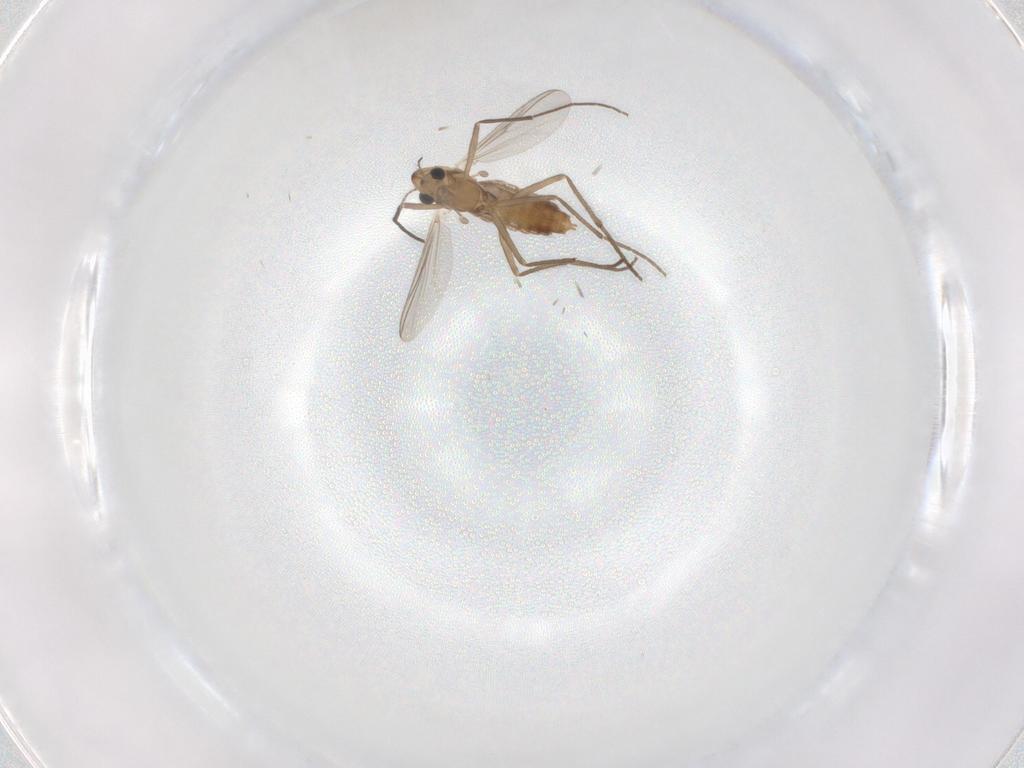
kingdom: Animalia
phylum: Arthropoda
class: Insecta
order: Diptera
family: Chironomidae
